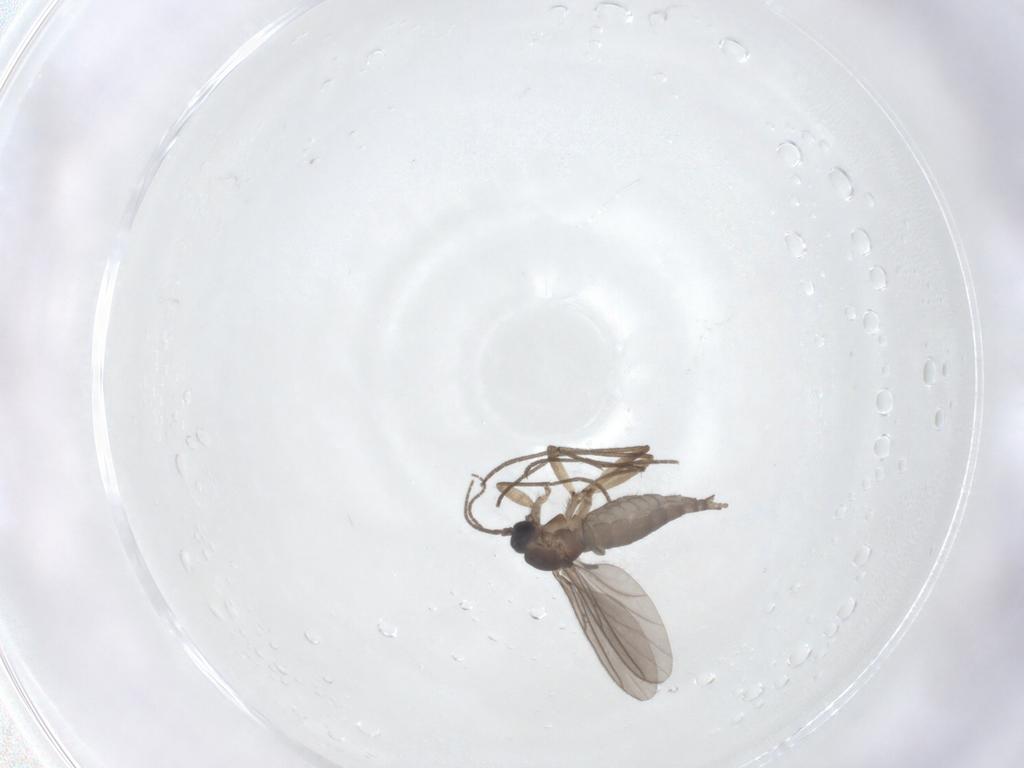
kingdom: Animalia
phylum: Arthropoda
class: Insecta
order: Diptera
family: Sciaridae
